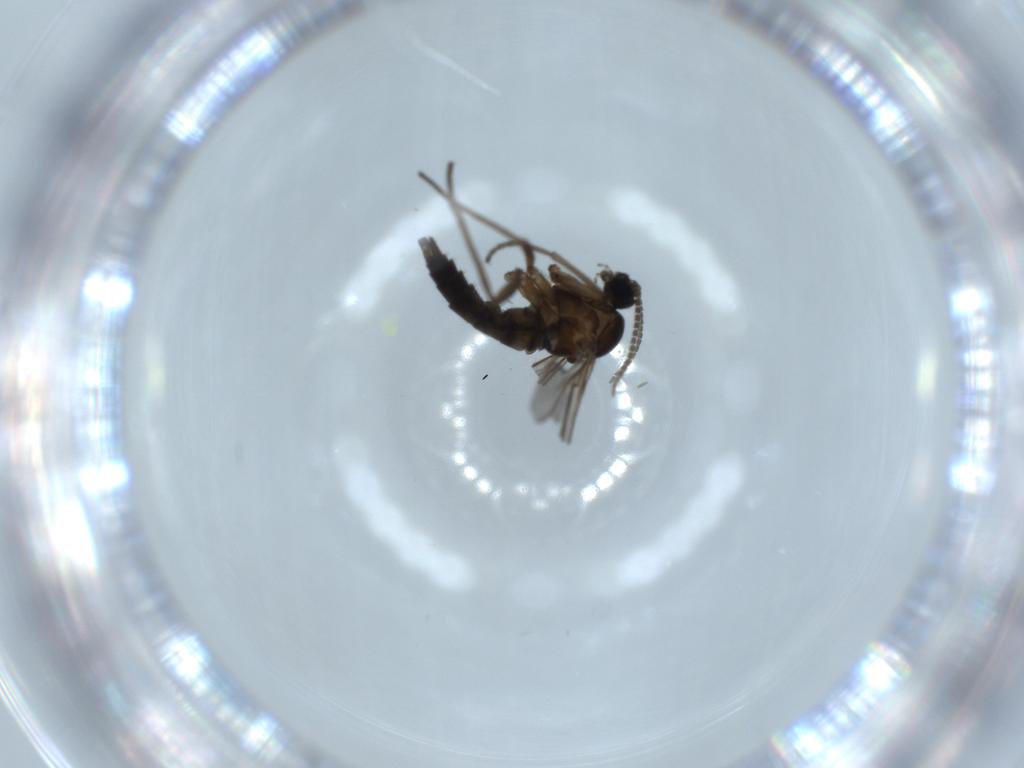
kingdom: Animalia
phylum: Arthropoda
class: Insecta
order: Diptera
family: Sciaridae
